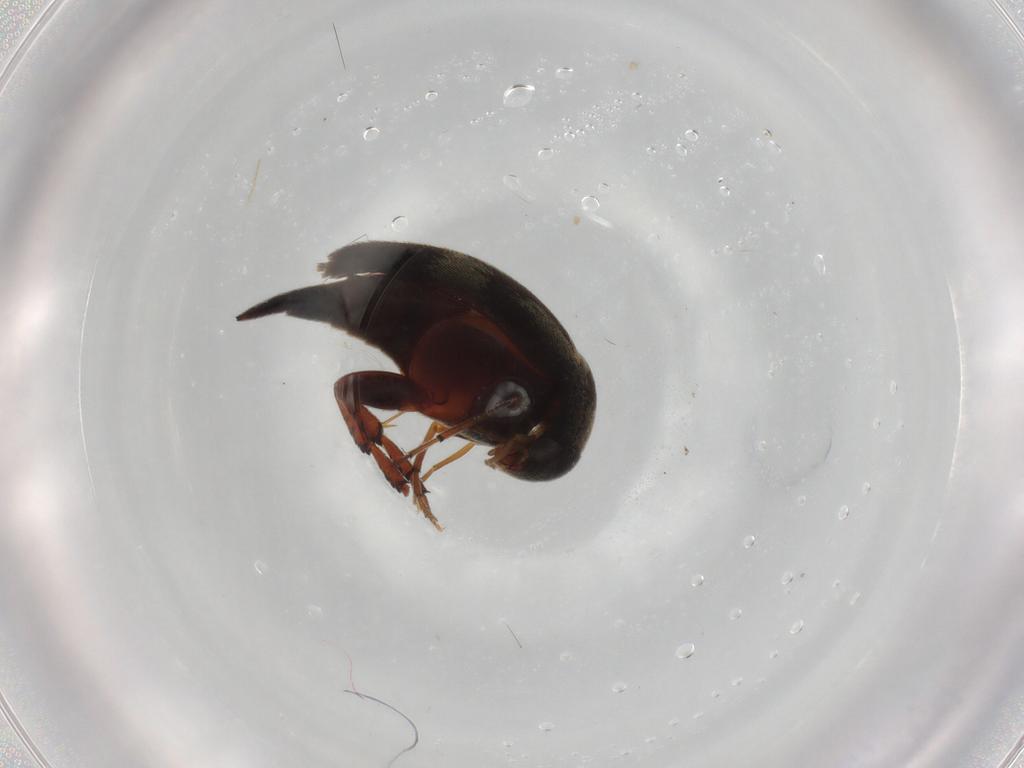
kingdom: Animalia
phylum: Arthropoda
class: Insecta
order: Coleoptera
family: Mordellidae
